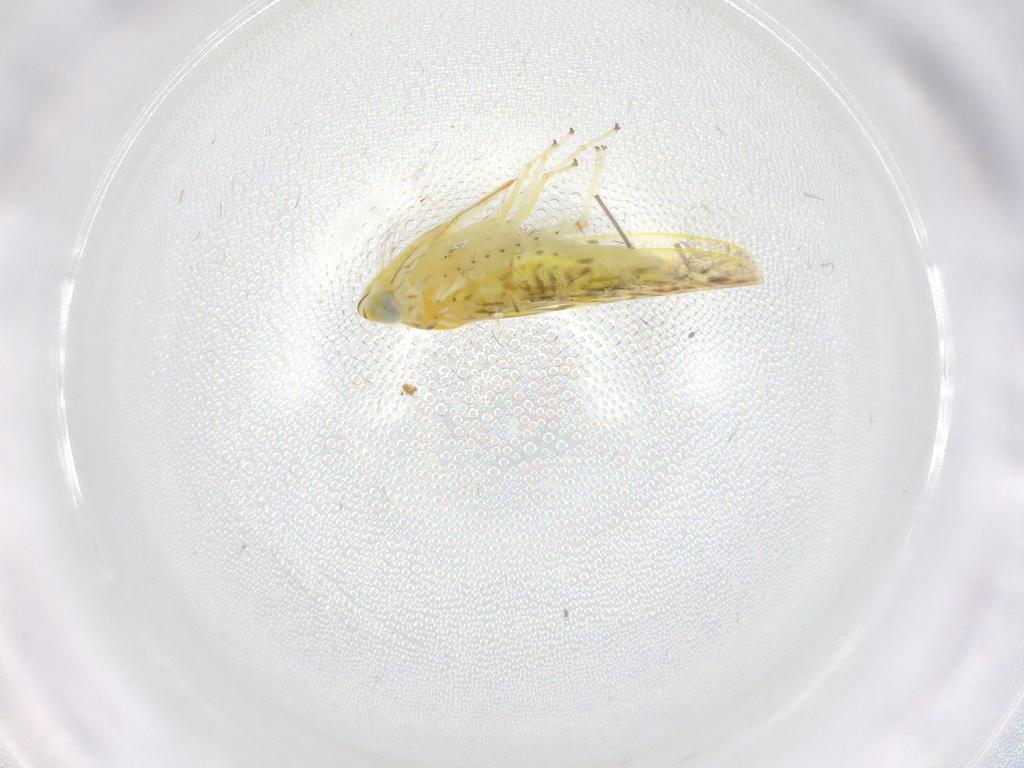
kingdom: Animalia
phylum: Arthropoda
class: Insecta
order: Hemiptera
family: Cicadellidae
